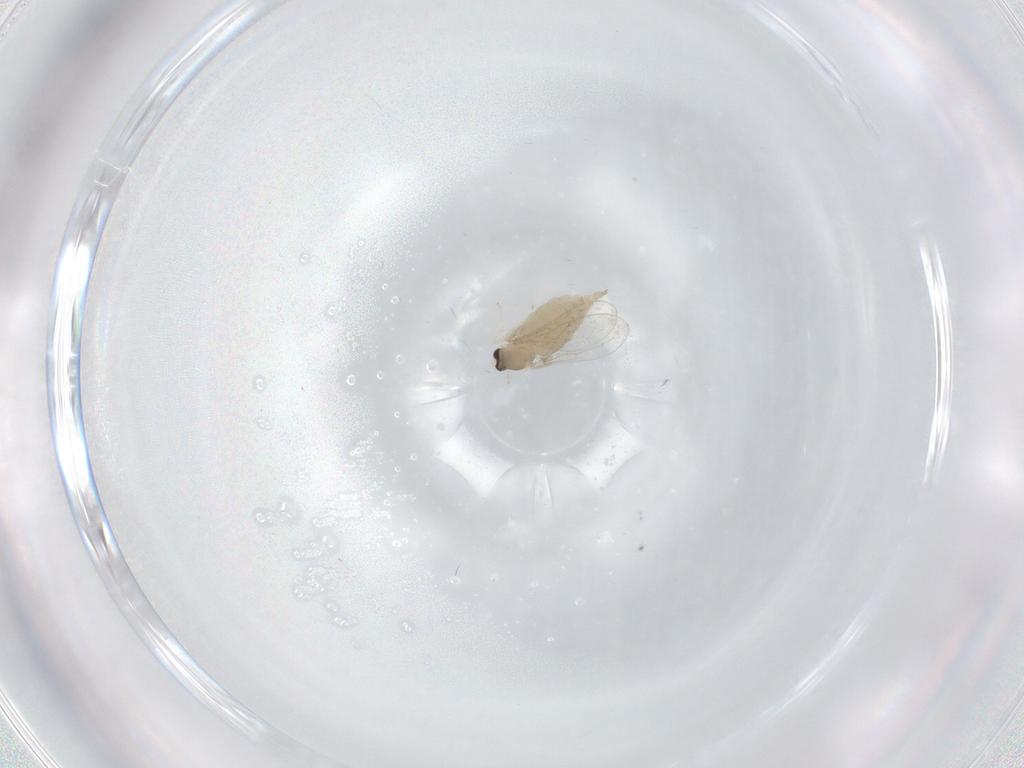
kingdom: Animalia
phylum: Arthropoda
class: Insecta
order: Diptera
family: Cecidomyiidae
